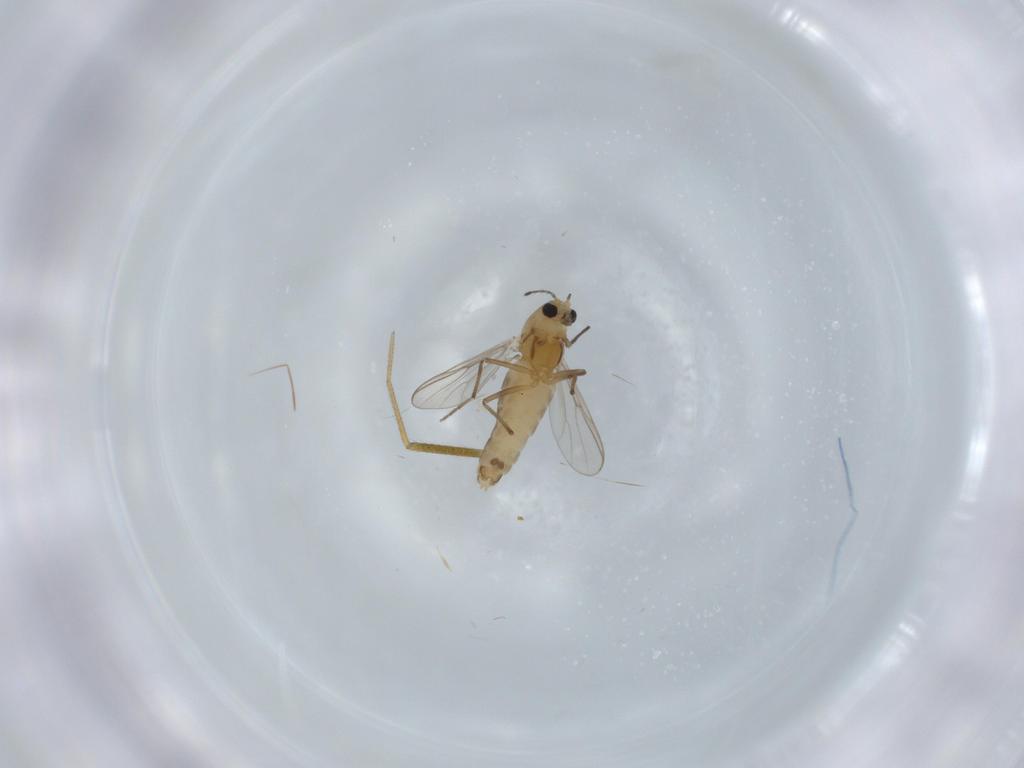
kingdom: Animalia
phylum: Arthropoda
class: Insecta
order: Diptera
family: Chironomidae
